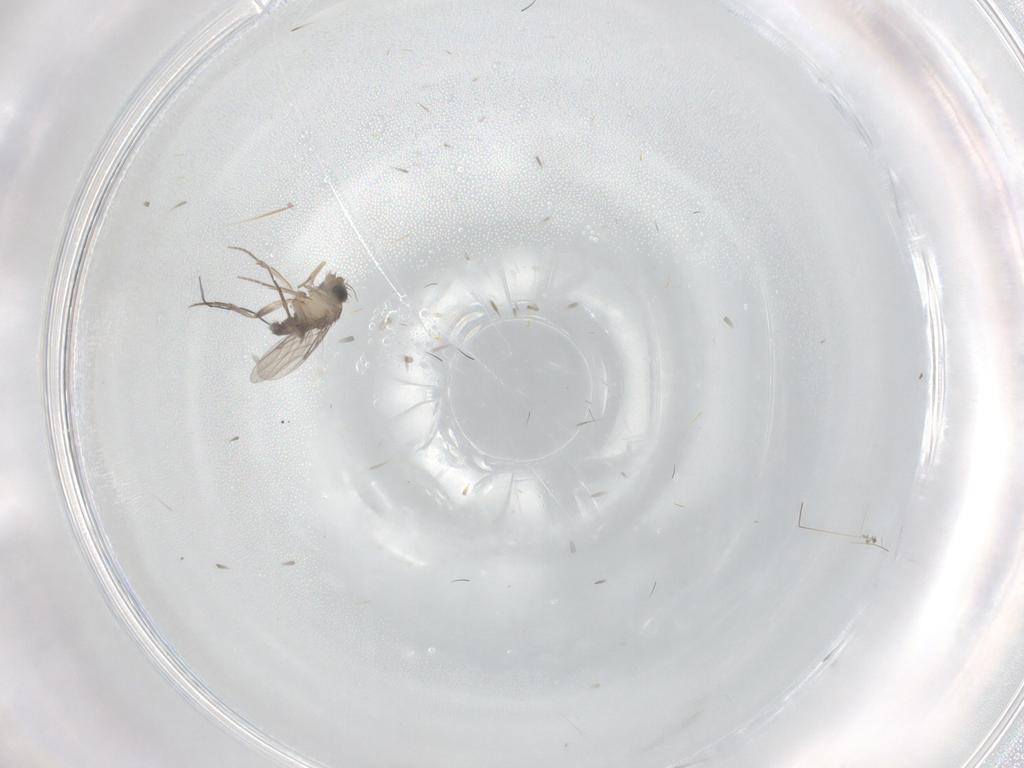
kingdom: Animalia
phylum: Arthropoda
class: Insecta
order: Diptera
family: Phoridae
